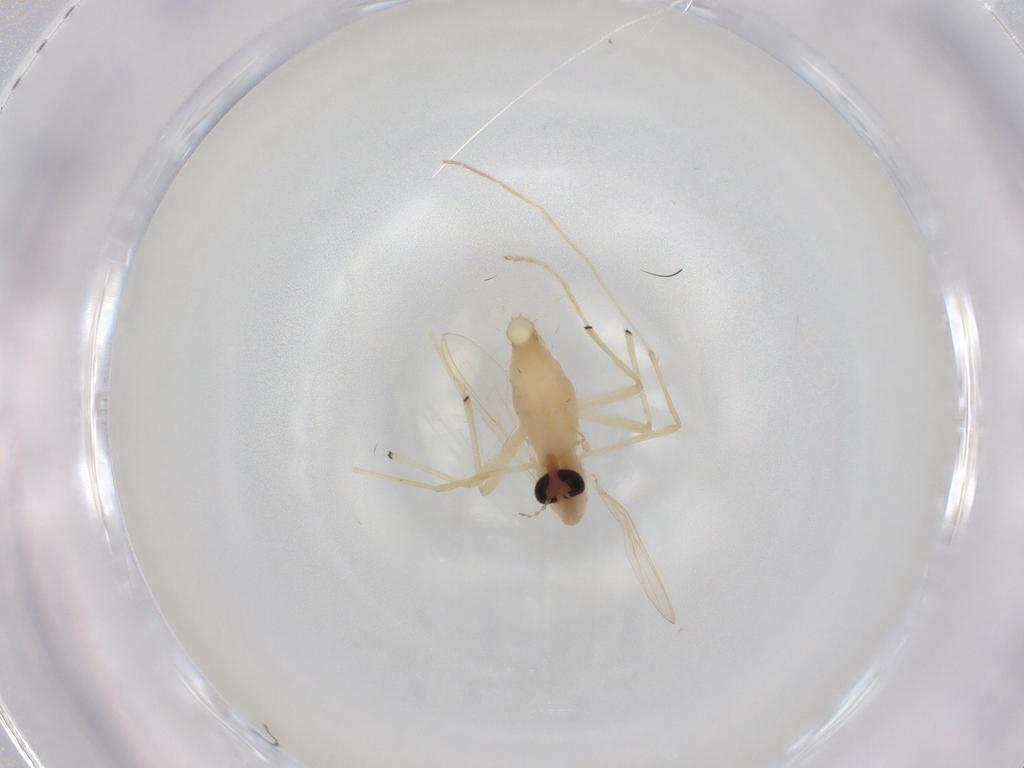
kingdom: Animalia
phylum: Arthropoda
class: Insecta
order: Diptera
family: Chironomidae
